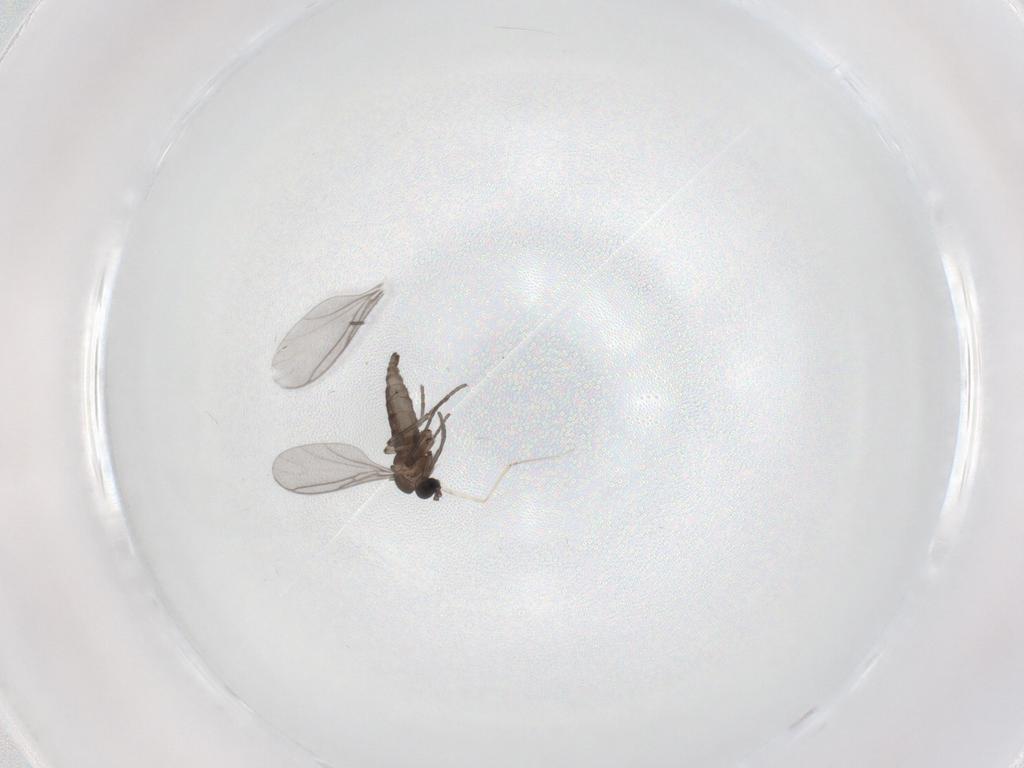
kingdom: Animalia
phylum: Arthropoda
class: Insecta
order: Diptera
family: Sciaridae
